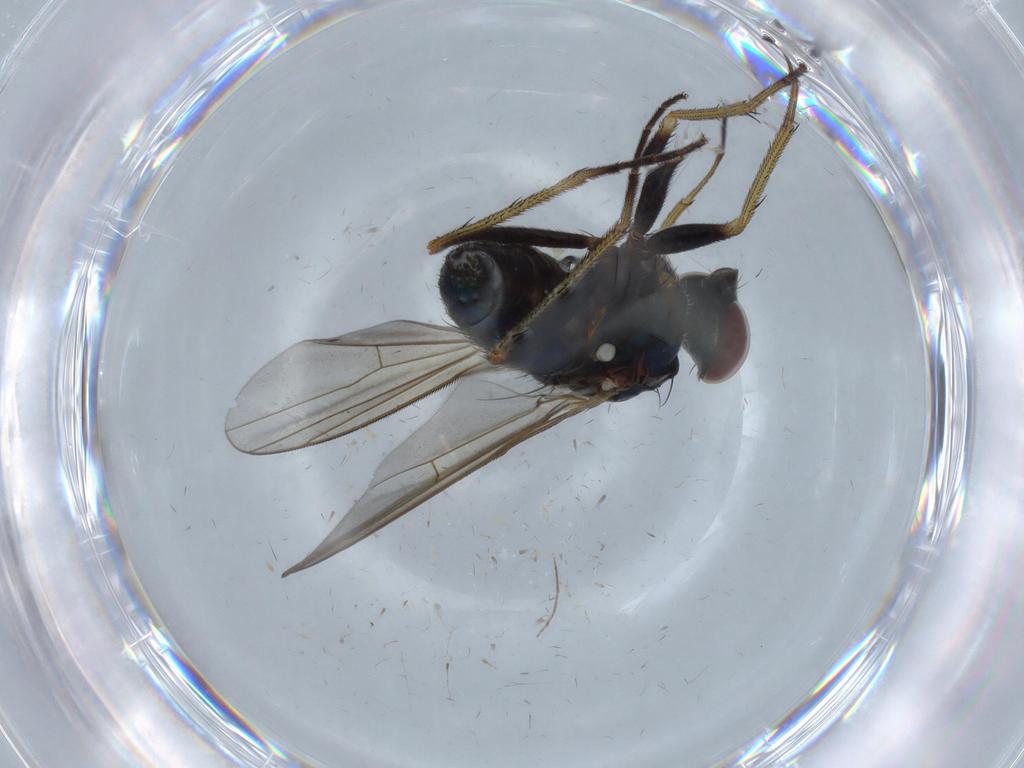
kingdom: Animalia
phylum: Arthropoda
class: Insecta
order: Diptera
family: Dolichopodidae
